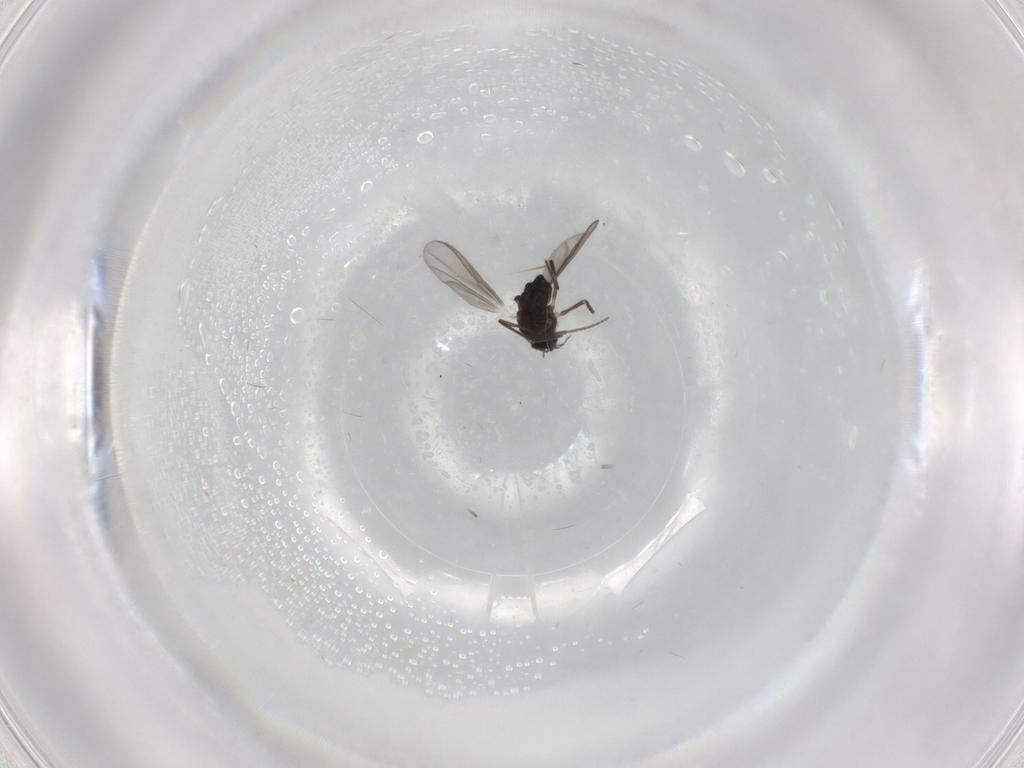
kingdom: Animalia
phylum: Arthropoda
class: Insecta
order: Diptera
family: Chironomidae
